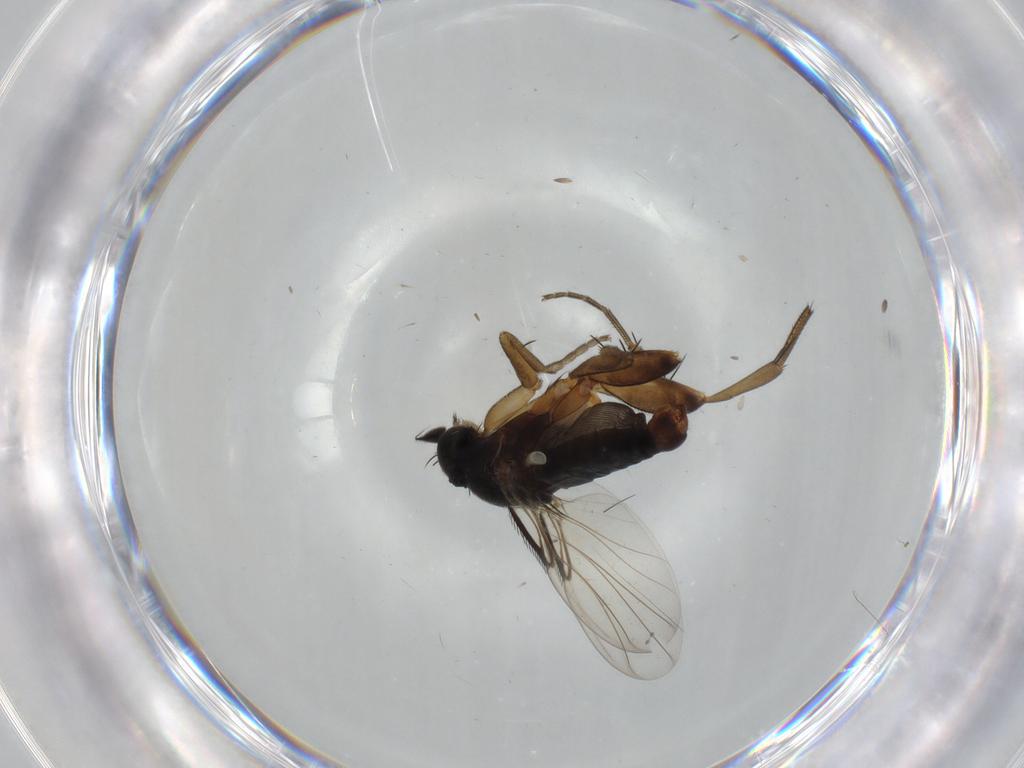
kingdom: Animalia
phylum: Arthropoda
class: Insecta
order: Diptera
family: Phoridae
